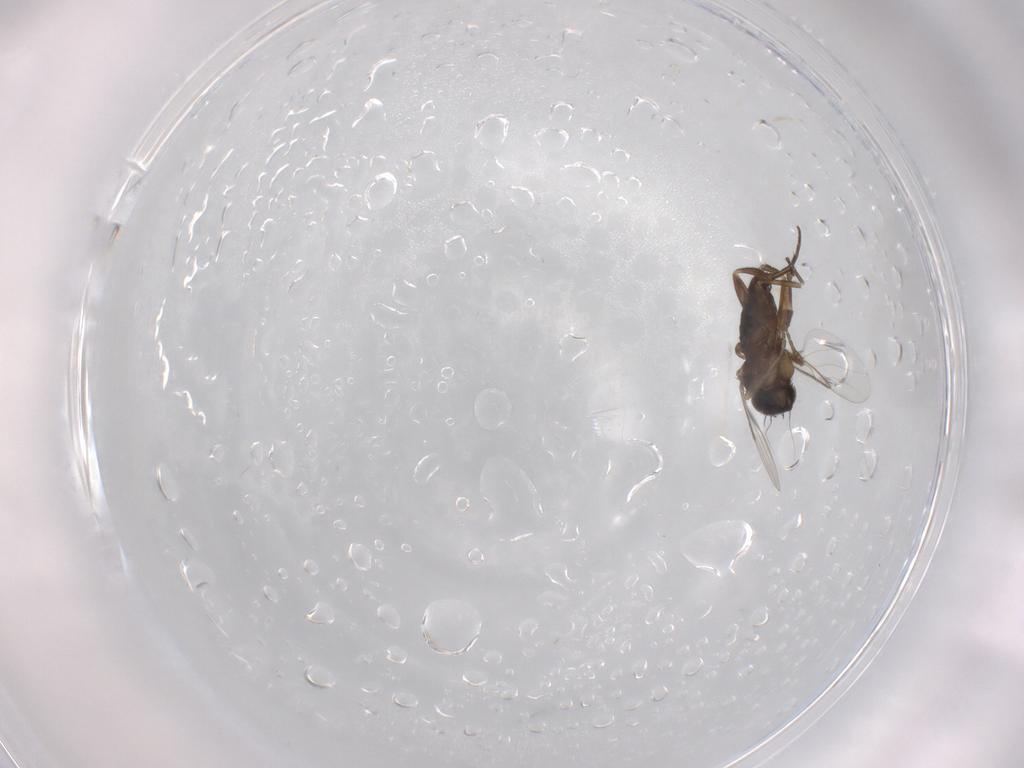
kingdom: Animalia
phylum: Arthropoda
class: Insecta
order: Diptera
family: Phoridae
